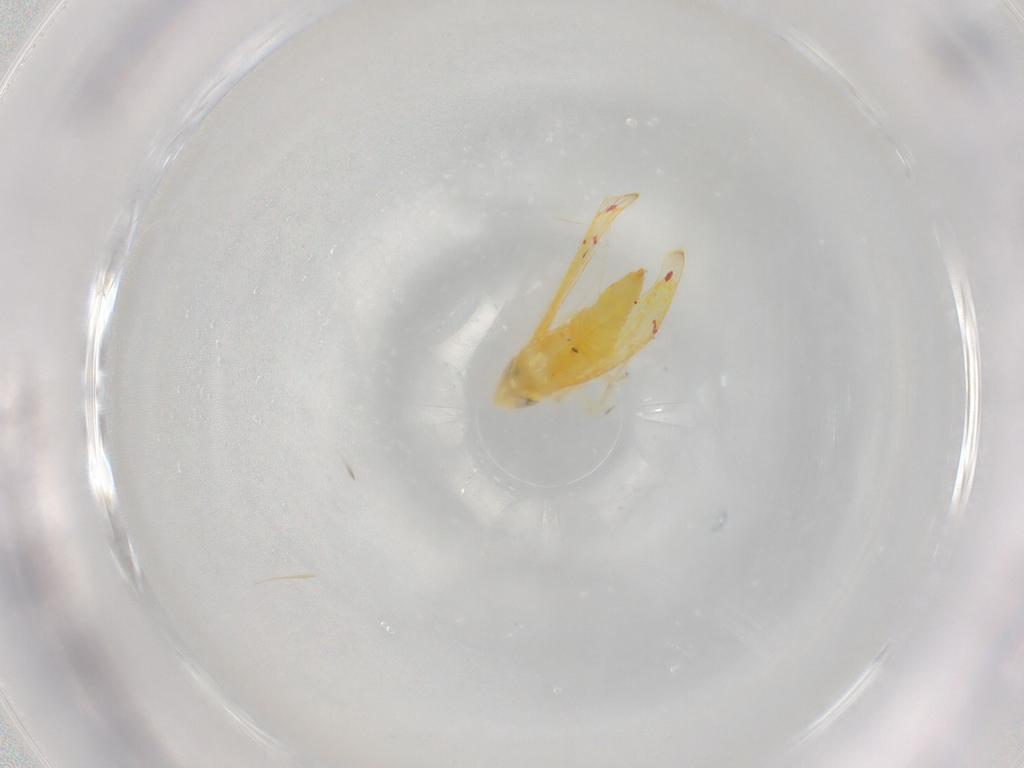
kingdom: Animalia
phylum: Arthropoda
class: Insecta
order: Hemiptera
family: Cicadellidae
